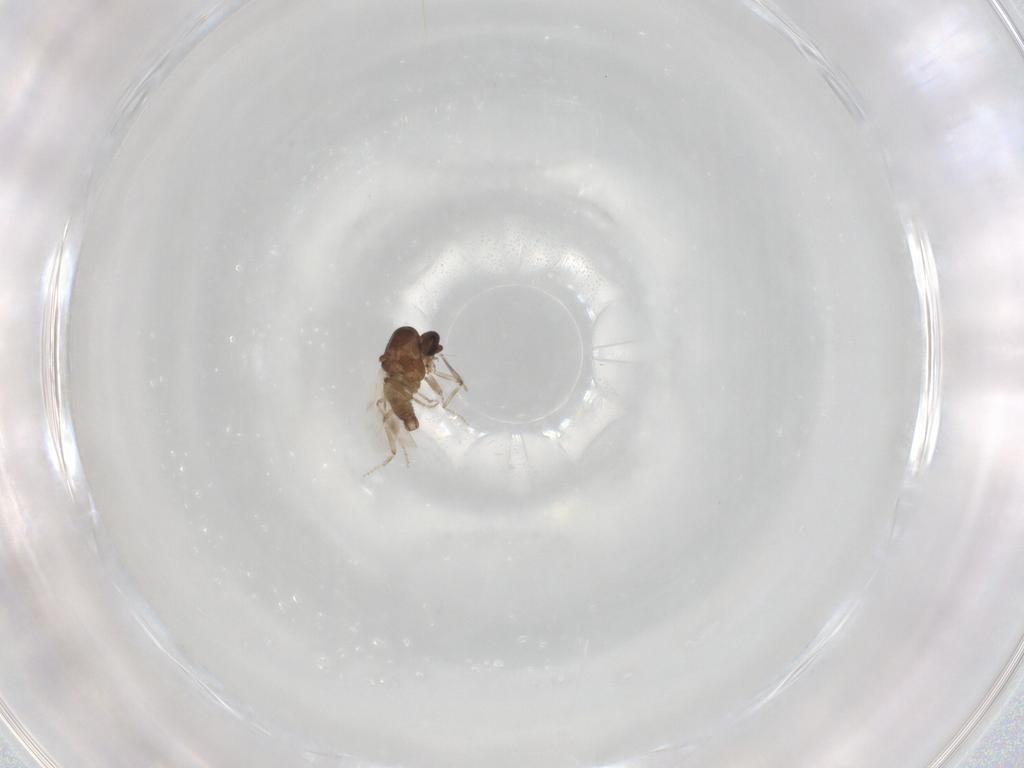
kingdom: Animalia
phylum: Arthropoda
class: Insecta
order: Diptera
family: Ceratopogonidae
